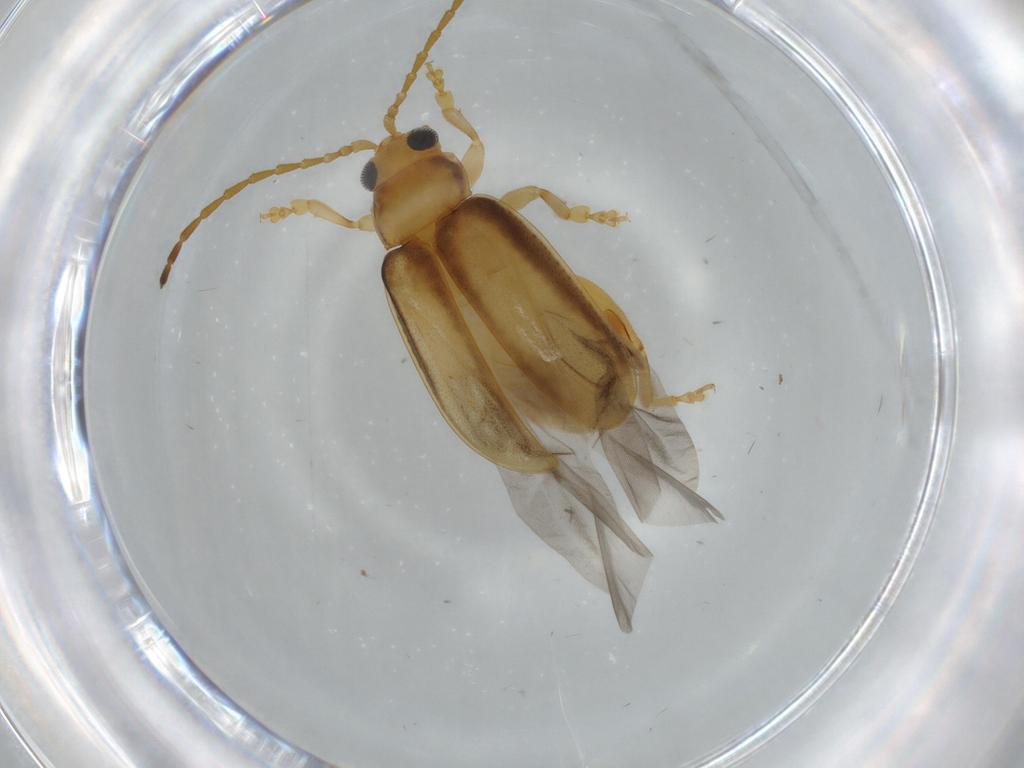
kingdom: Animalia
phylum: Arthropoda
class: Insecta
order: Coleoptera
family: Chrysomelidae
